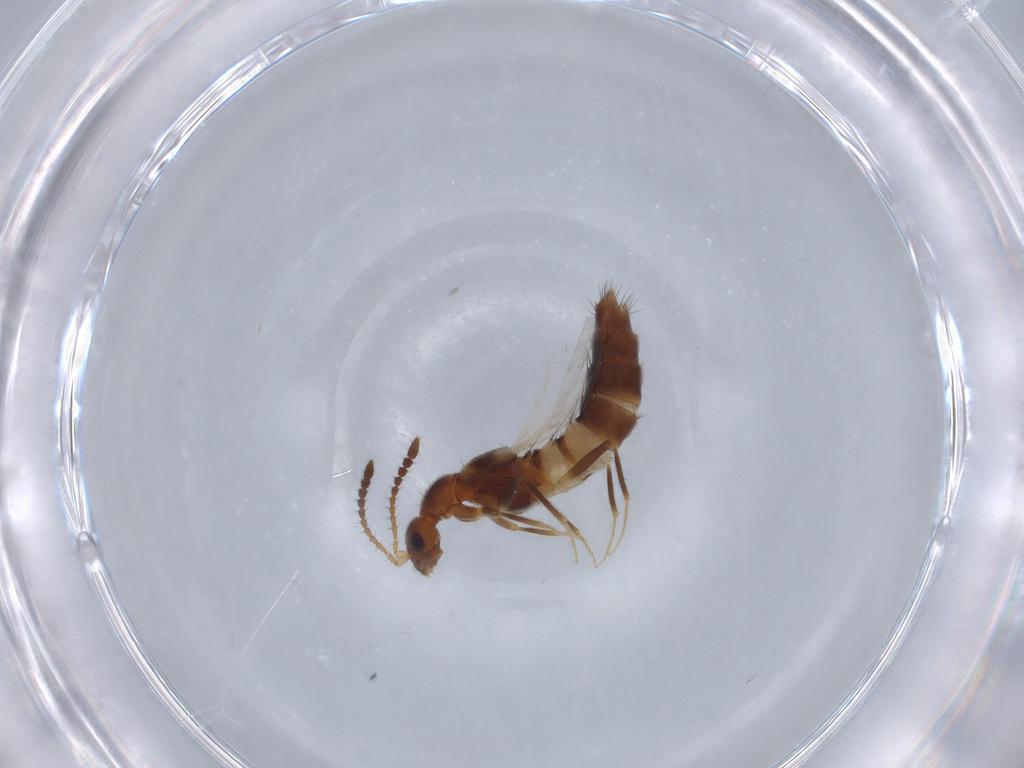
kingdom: Animalia
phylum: Arthropoda
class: Insecta
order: Coleoptera
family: Staphylinidae
